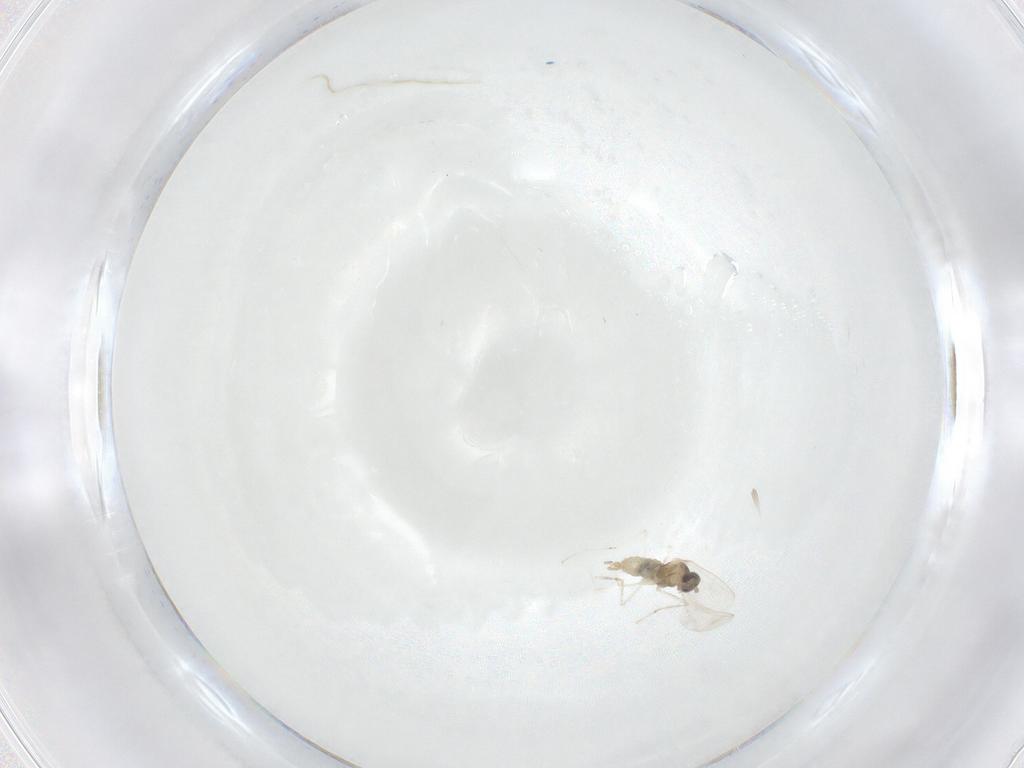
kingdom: Animalia
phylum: Arthropoda
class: Insecta
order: Diptera
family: Cecidomyiidae
